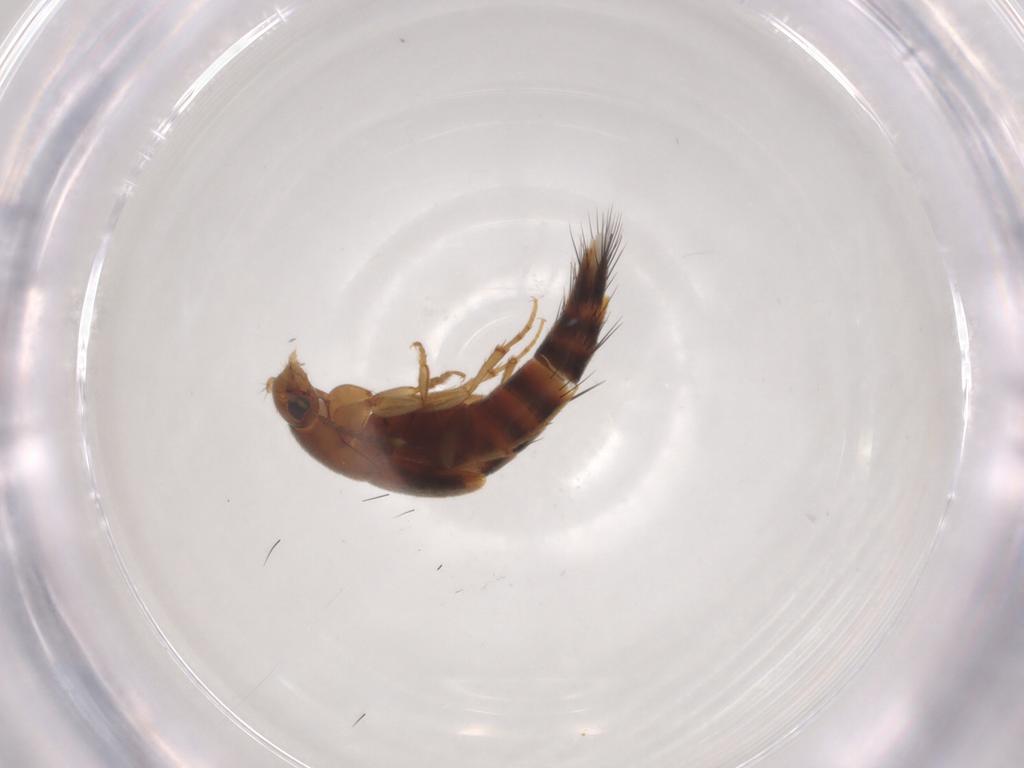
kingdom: Animalia
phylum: Arthropoda
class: Insecta
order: Coleoptera
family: Staphylinidae
